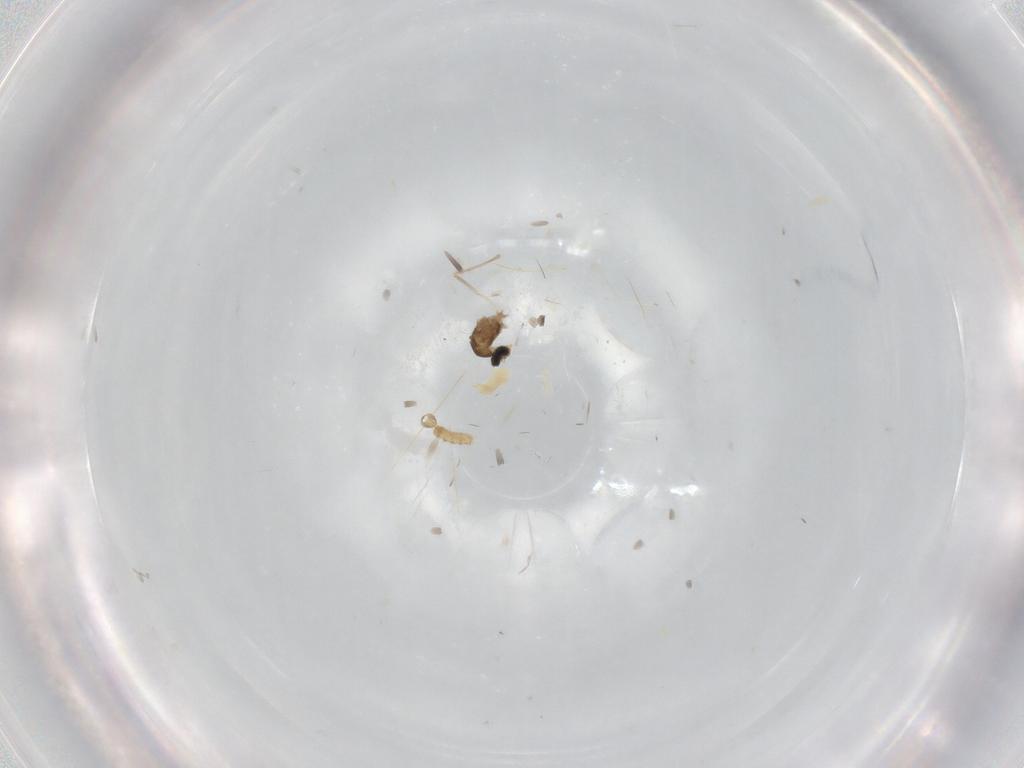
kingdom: Animalia
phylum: Arthropoda
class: Insecta
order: Diptera
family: Cecidomyiidae
